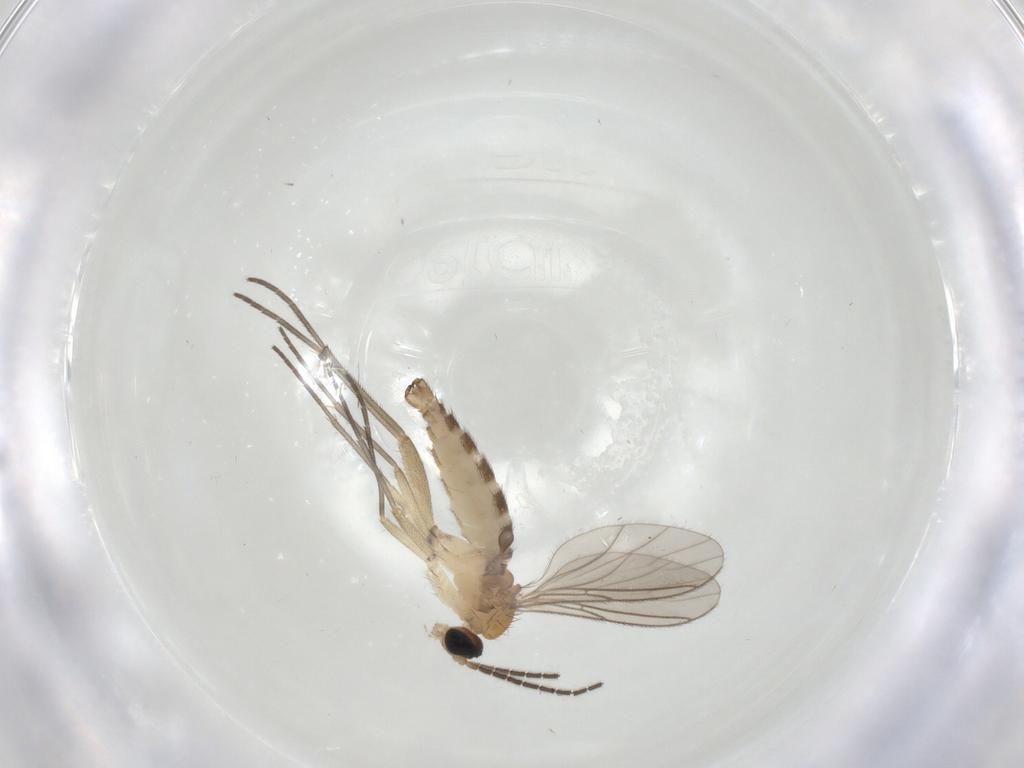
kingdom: Animalia
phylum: Arthropoda
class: Insecta
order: Diptera
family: Sciaridae
